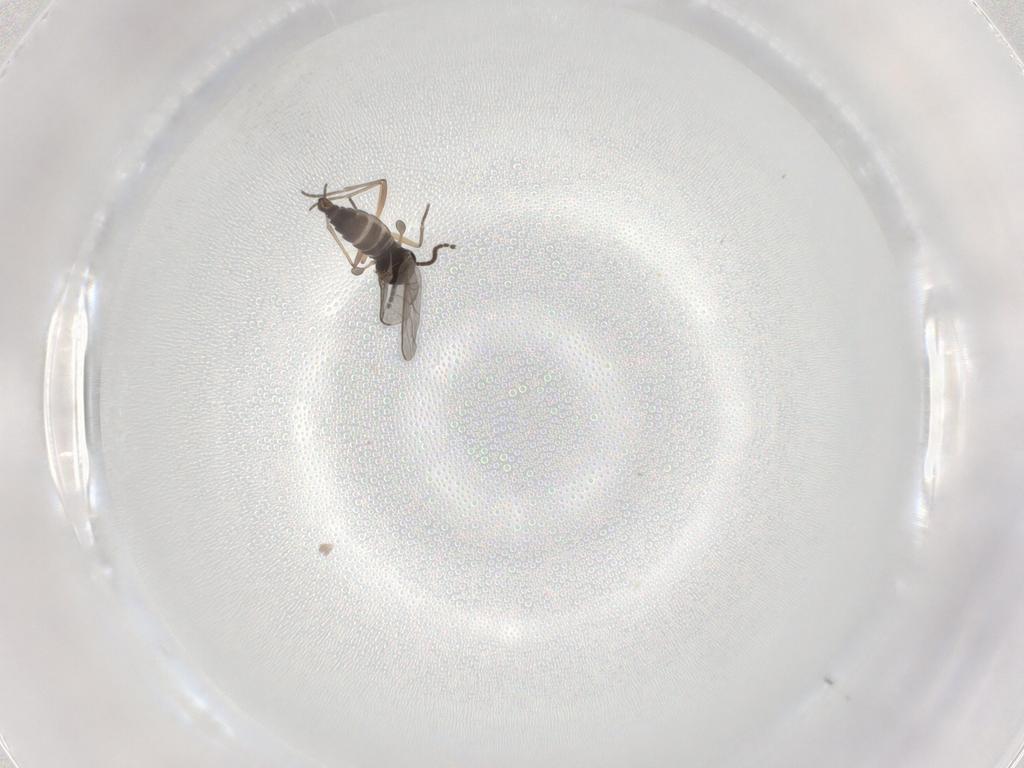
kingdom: Animalia
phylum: Arthropoda
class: Insecta
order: Diptera
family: Sciaridae
